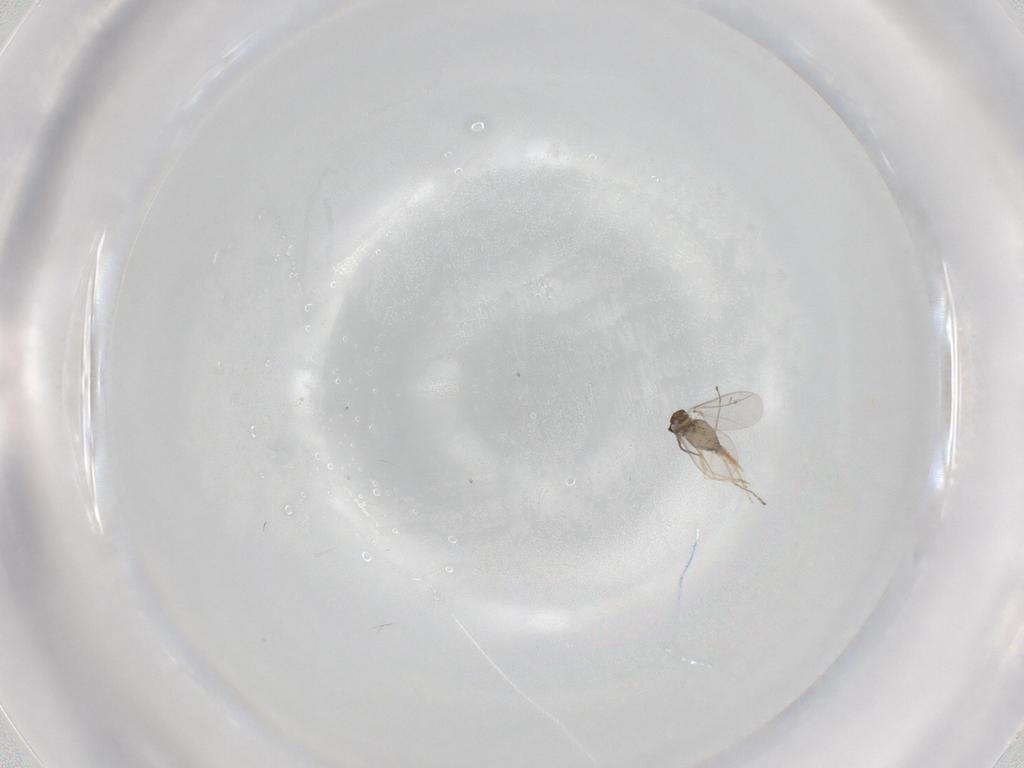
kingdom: Animalia
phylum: Arthropoda
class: Insecta
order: Diptera
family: Cecidomyiidae
